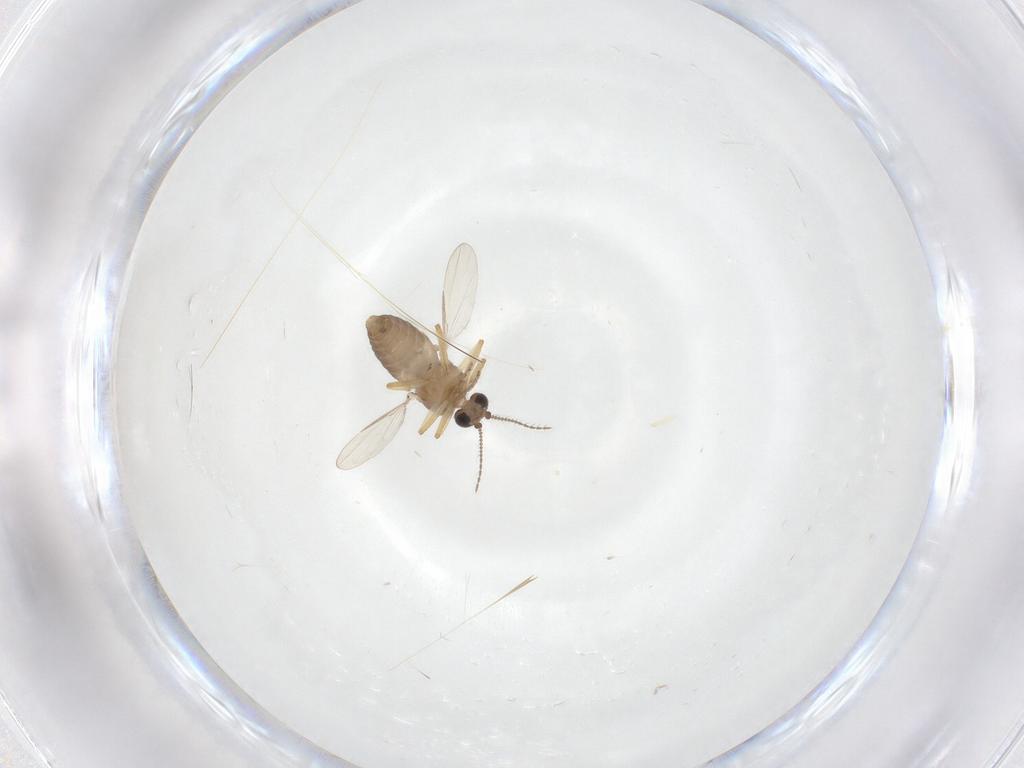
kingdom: Animalia
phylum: Arthropoda
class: Insecta
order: Diptera
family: Ceratopogonidae
